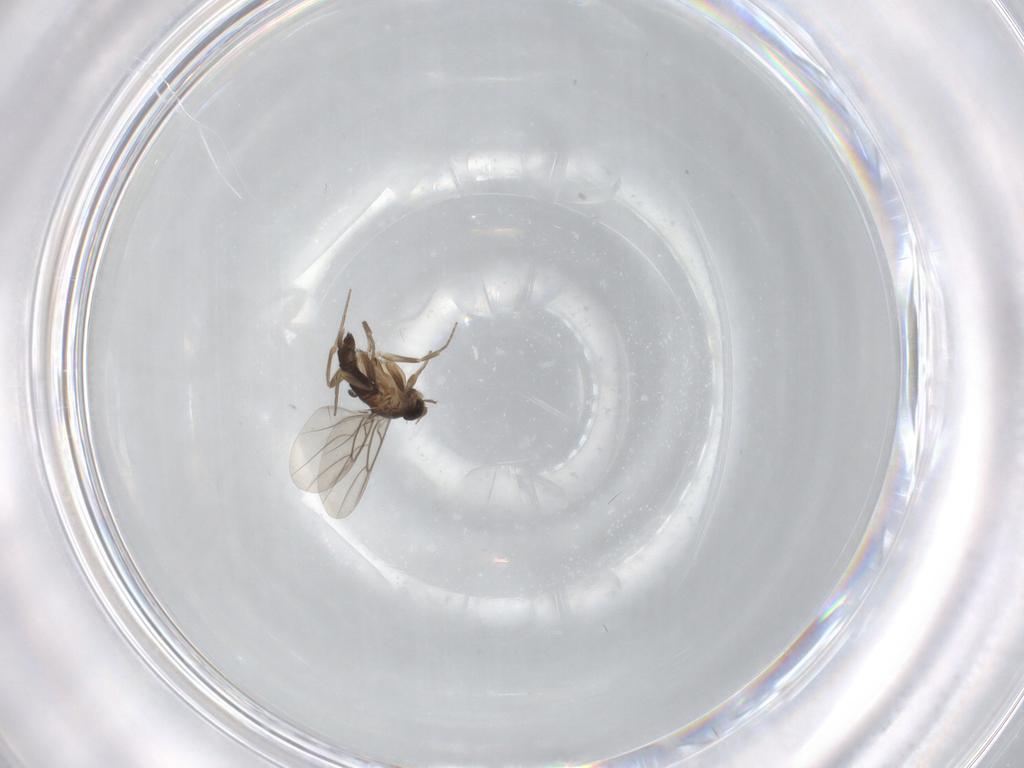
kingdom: Animalia
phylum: Arthropoda
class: Insecta
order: Diptera
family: Phoridae
